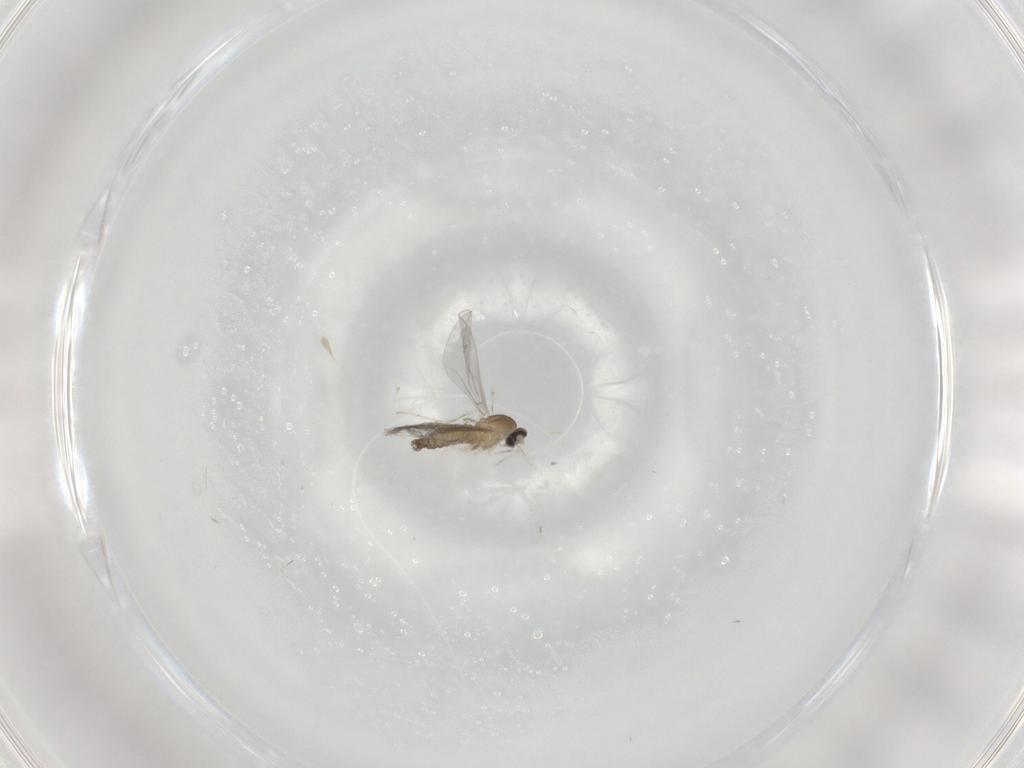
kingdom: Animalia
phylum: Arthropoda
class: Insecta
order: Diptera
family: Cecidomyiidae
